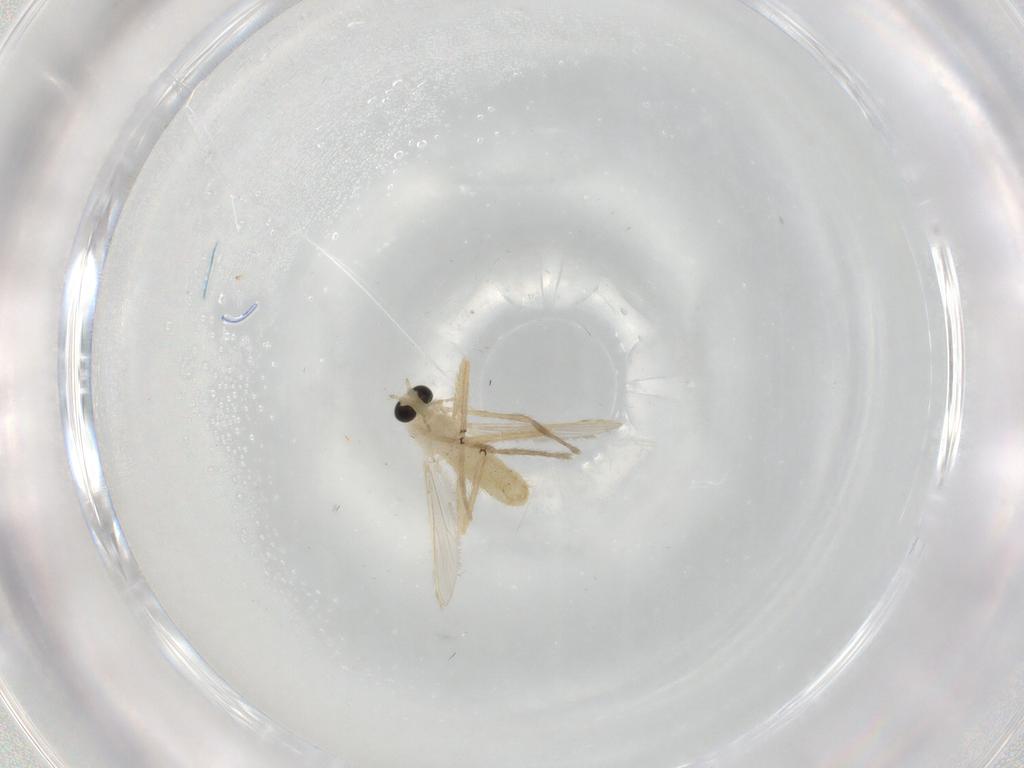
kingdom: Animalia
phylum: Arthropoda
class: Insecta
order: Diptera
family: Chironomidae
